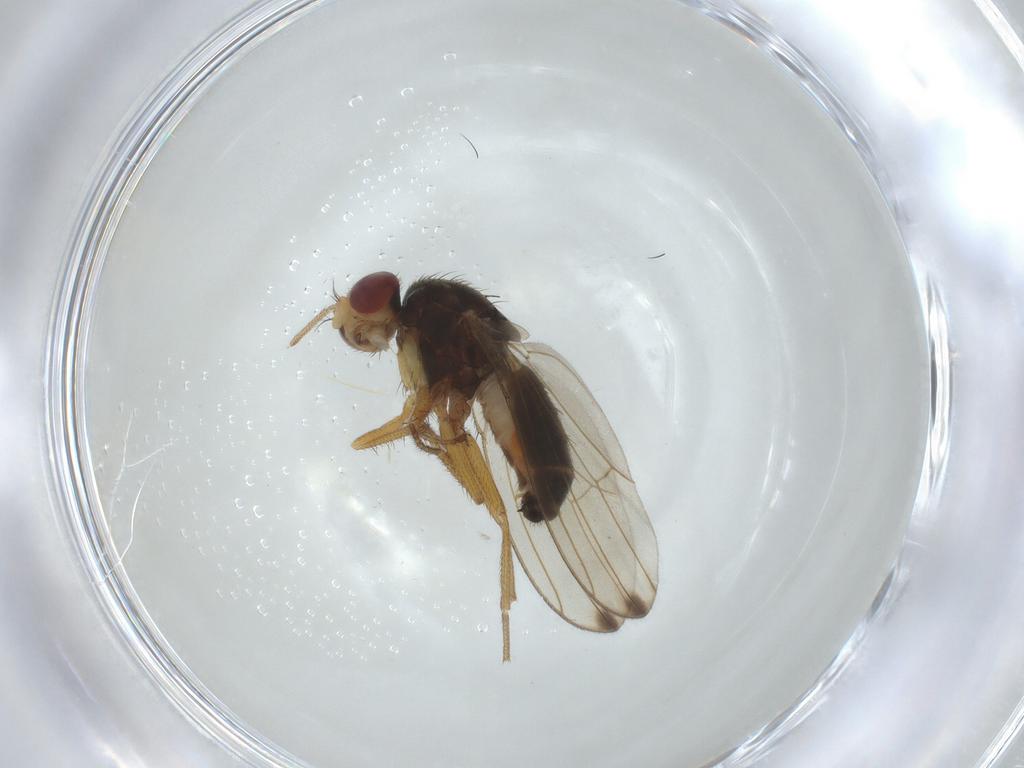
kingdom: Animalia
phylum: Arthropoda
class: Insecta
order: Diptera
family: Drosophilidae
